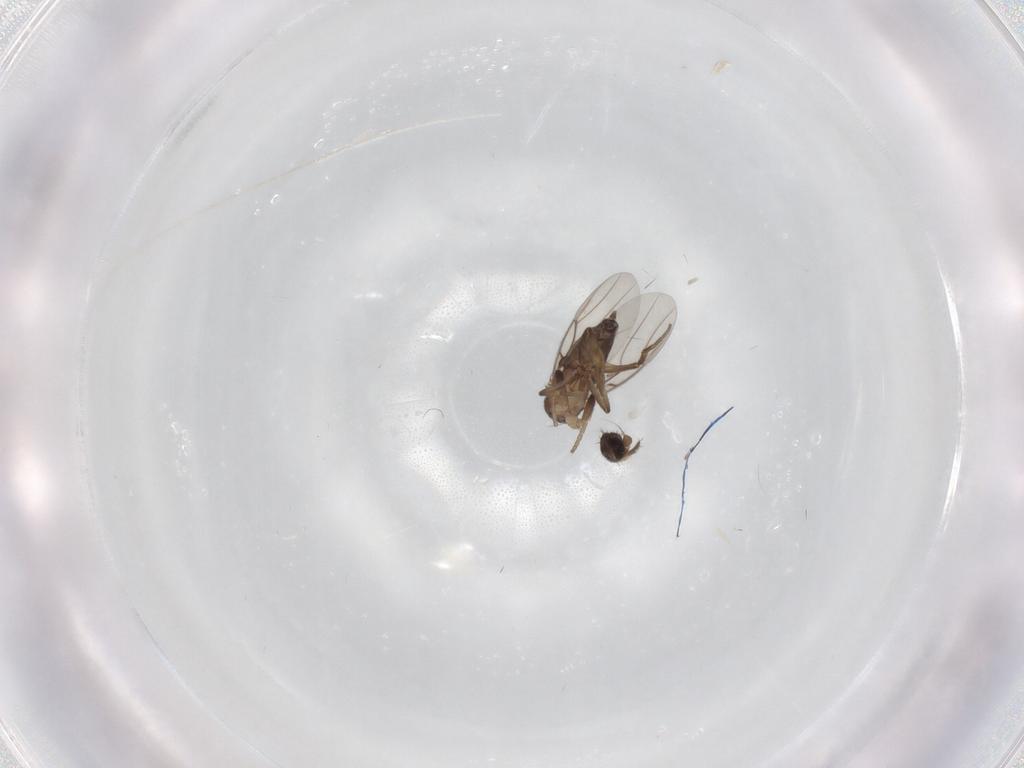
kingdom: Animalia
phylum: Arthropoda
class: Insecta
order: Diptera
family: Phoridae
